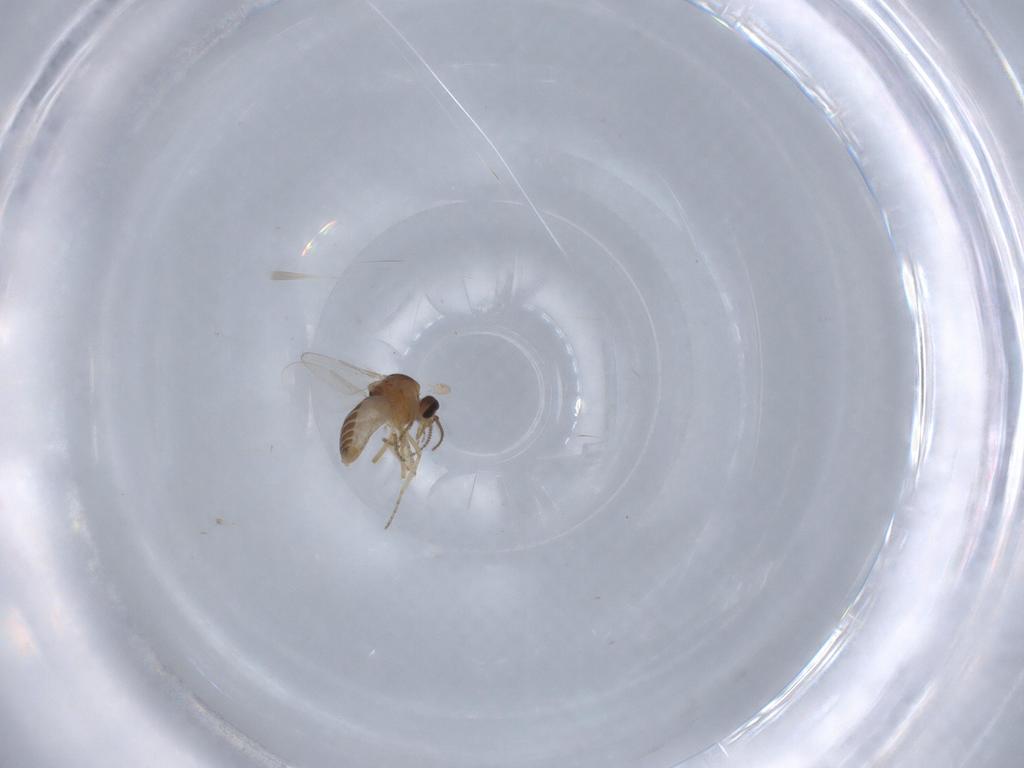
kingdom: Animalia
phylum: Arthropoda
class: Insecta
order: Diptera
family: Ceratopogonidae
